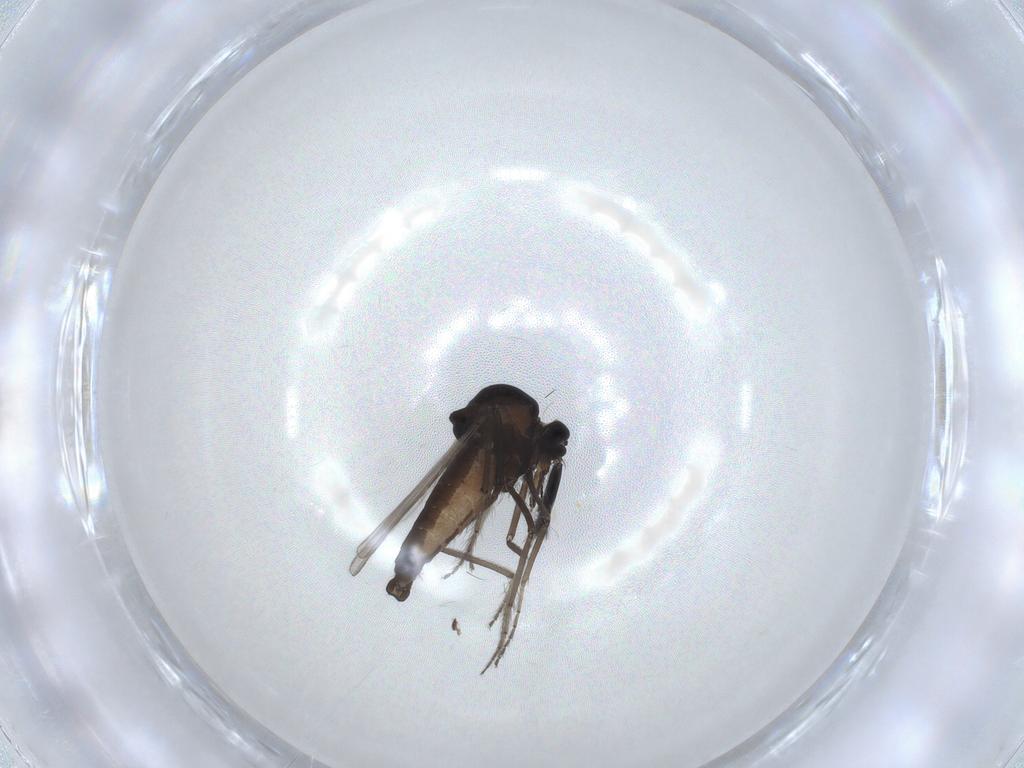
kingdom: Animalia
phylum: Arthropoda
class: Insecta
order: Diptera
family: Ceratopogonidae
